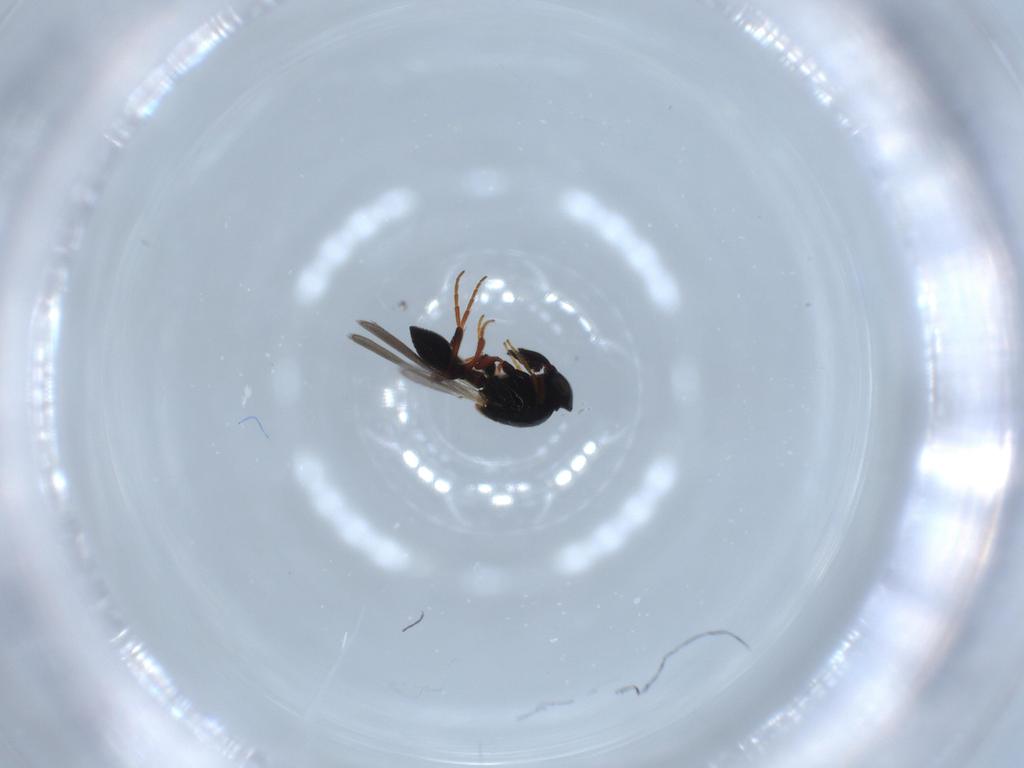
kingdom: Animalia
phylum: Arthropoda
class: Insecta
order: Hymenoptera
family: Platygastridae
